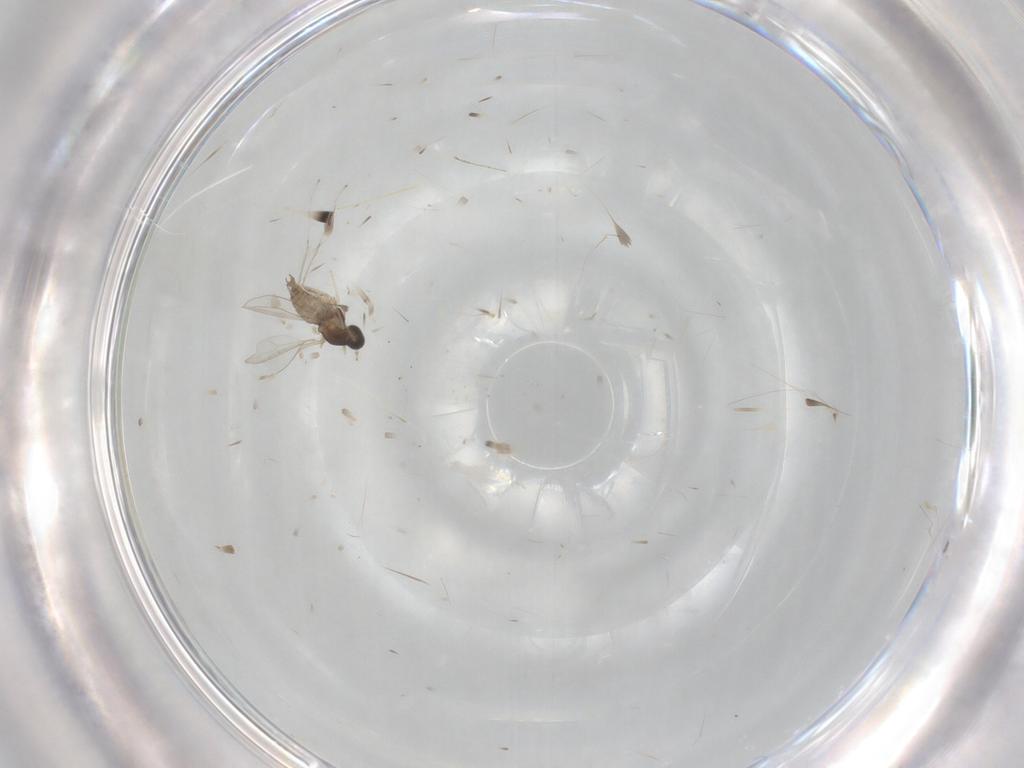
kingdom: Animalia
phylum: Arthropoda
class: Insecta
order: Diptera
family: Cecidomyiidae
